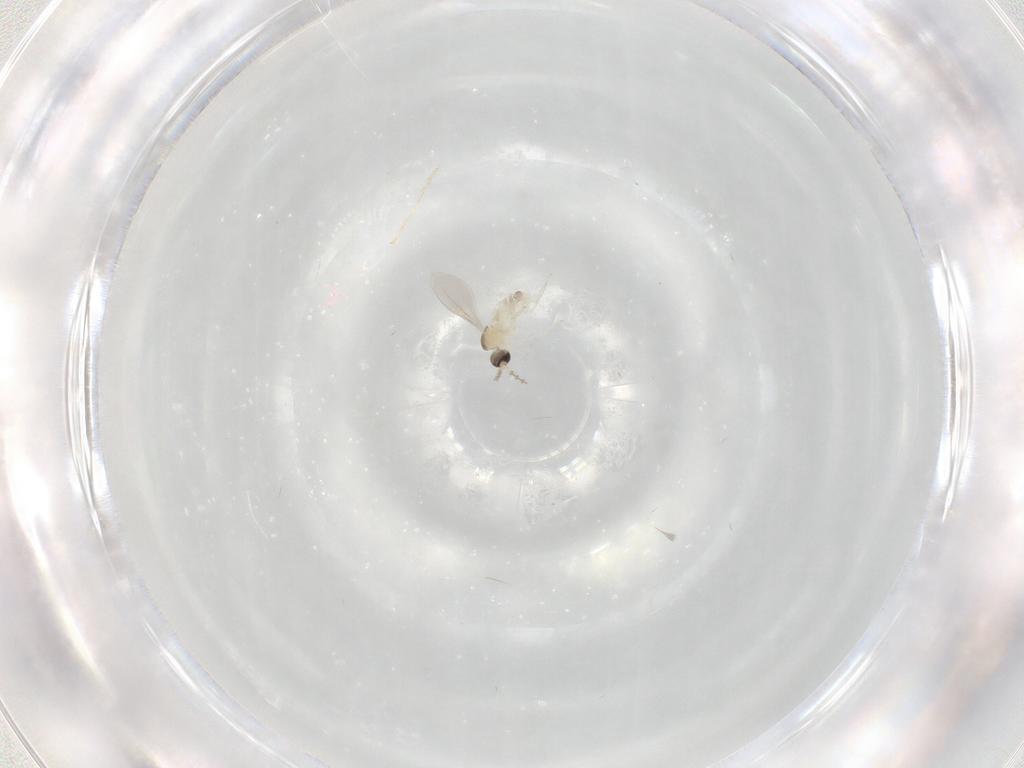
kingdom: Animalia
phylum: Arthropoda
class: Insecta
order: Diptera
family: Cecidomyiidae
